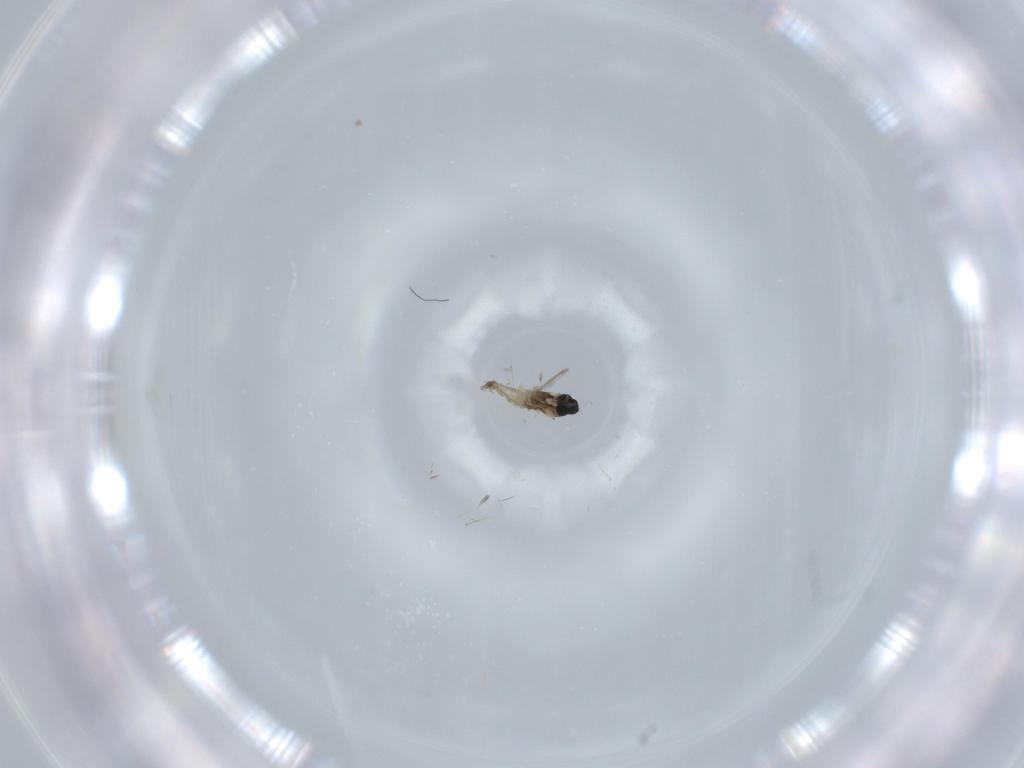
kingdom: Animalia
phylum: Arthropoda
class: Insecta
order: Diptera
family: Cecidomyiidae
